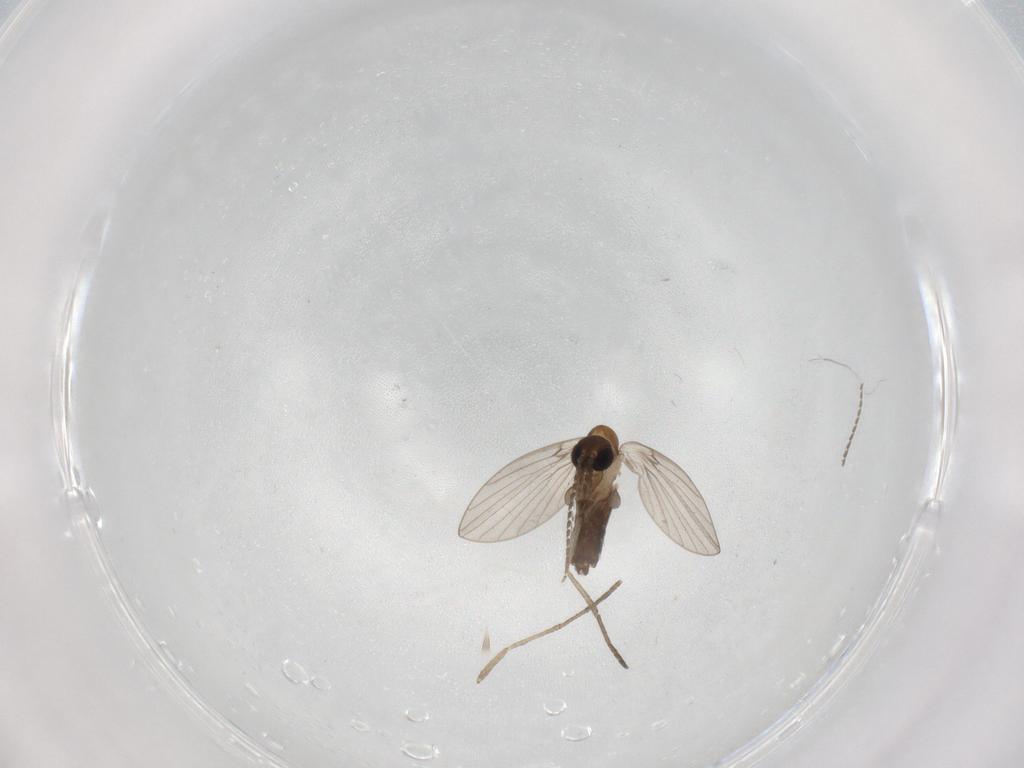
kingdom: Animalia
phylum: Arthropoda
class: Insecta
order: Diptera
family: Psychodidae
